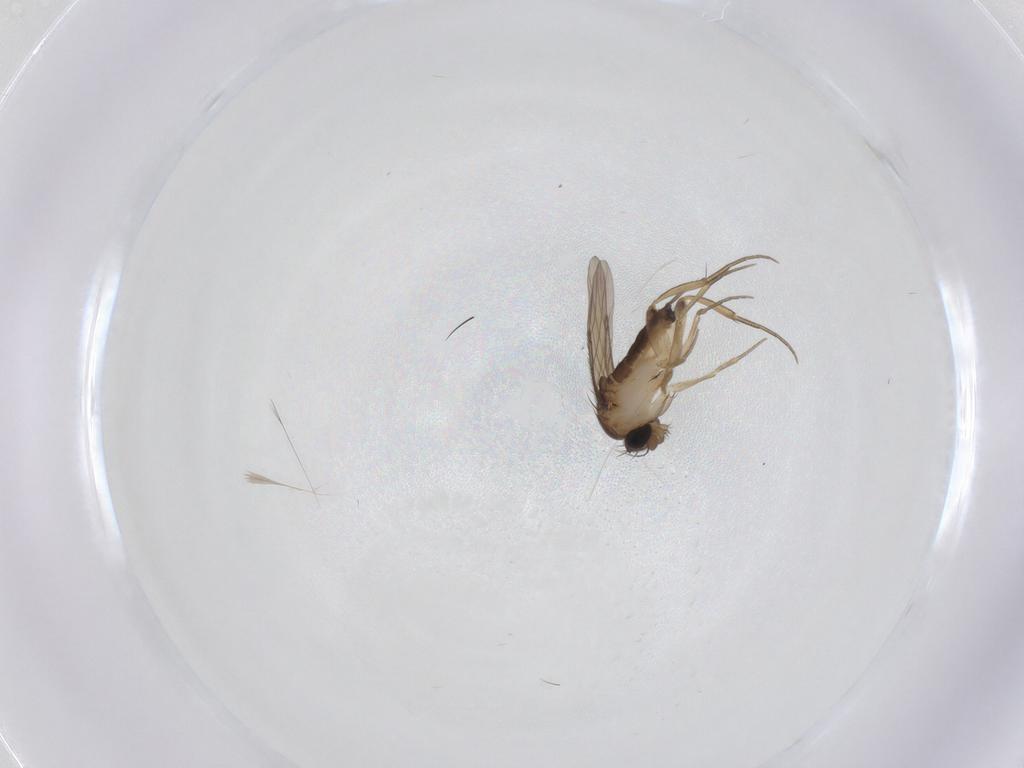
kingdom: Animalia
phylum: Arthropoda
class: Insecta
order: Diptera
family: Phoridae
